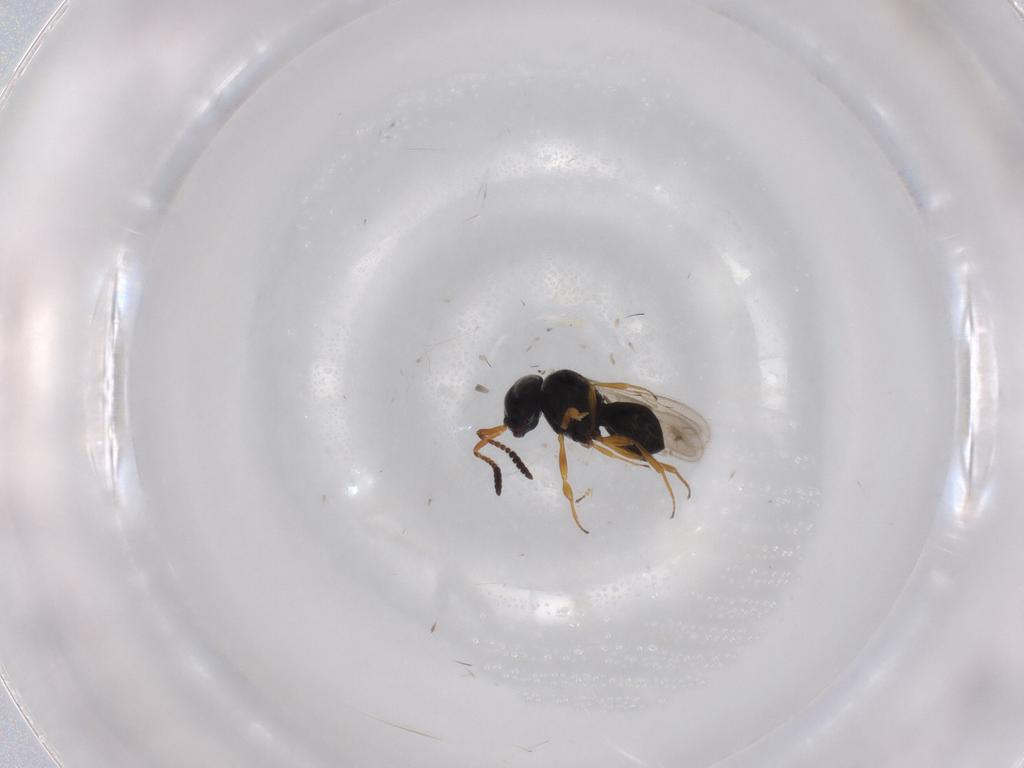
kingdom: Animalia
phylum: Arthropoda
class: Insecta
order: Hymenoptera
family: Scelionidae
